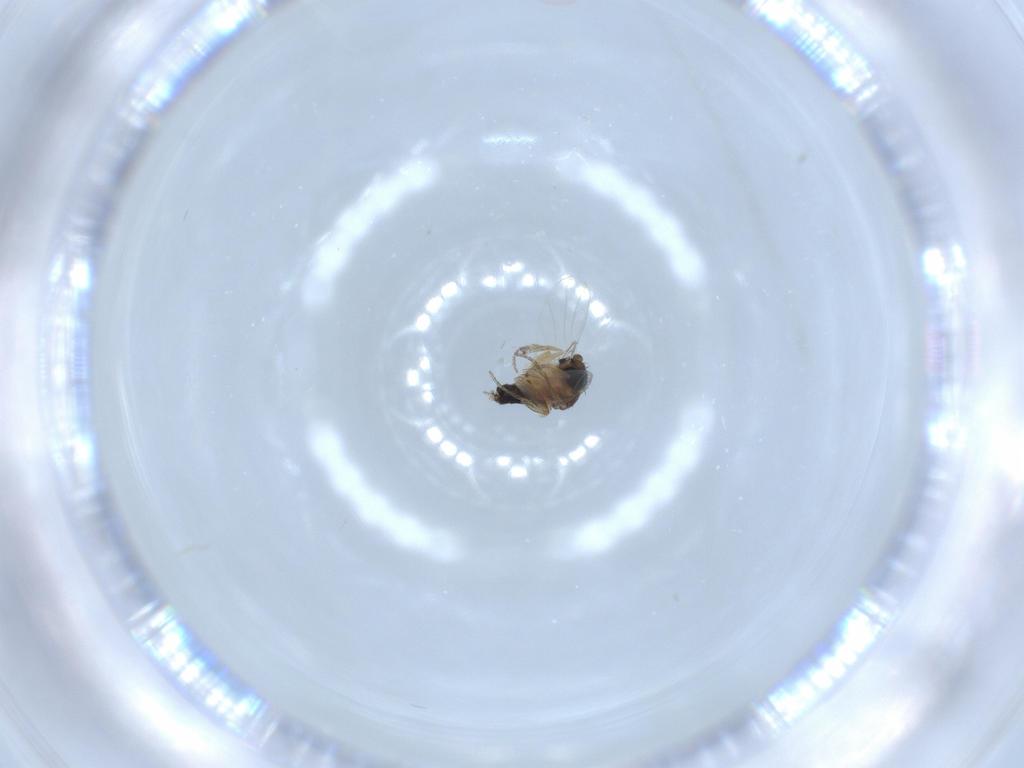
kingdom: Animalia
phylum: Arthropoda
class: Insecta
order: Diptera
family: Phoridae
